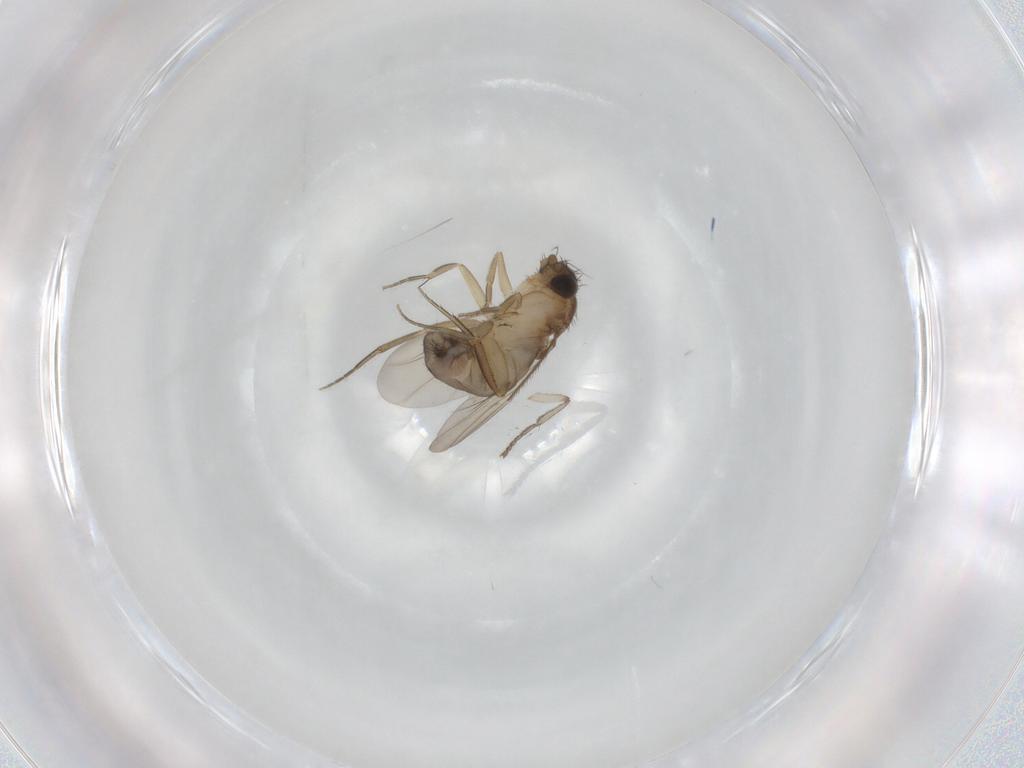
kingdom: Animalia
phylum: Arthropoda
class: Insecta
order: Diptera
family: Phoridae
